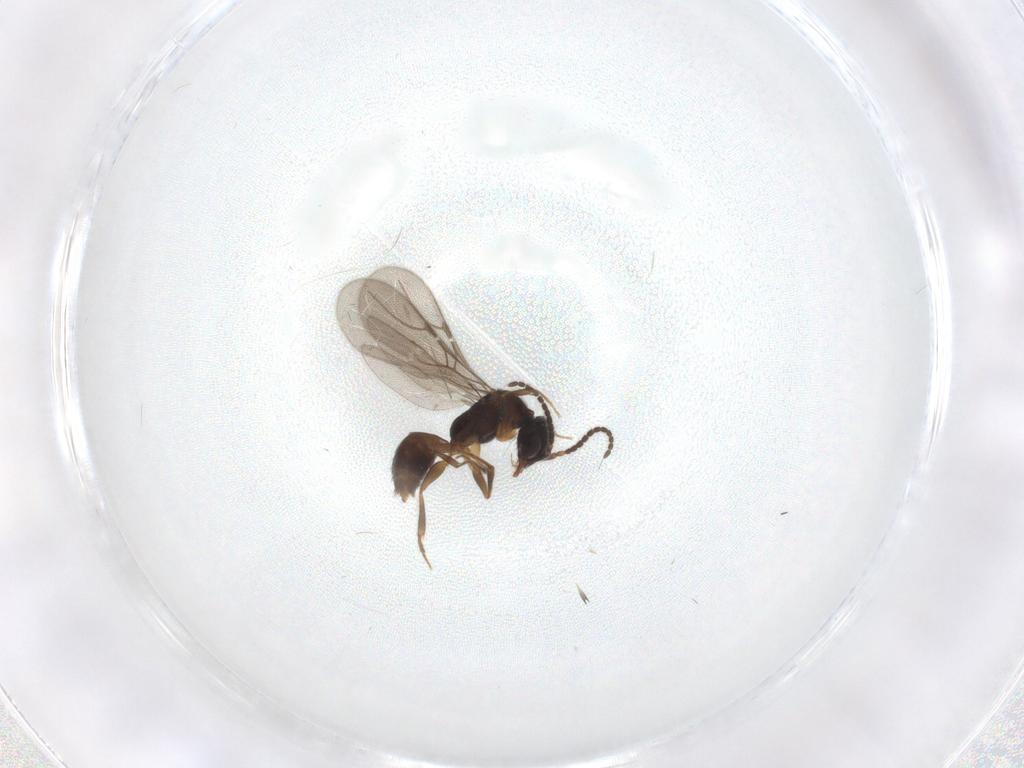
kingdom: Animalia
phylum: Arthropoda
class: Insecta
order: Hymenoptera
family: Bethylidae
